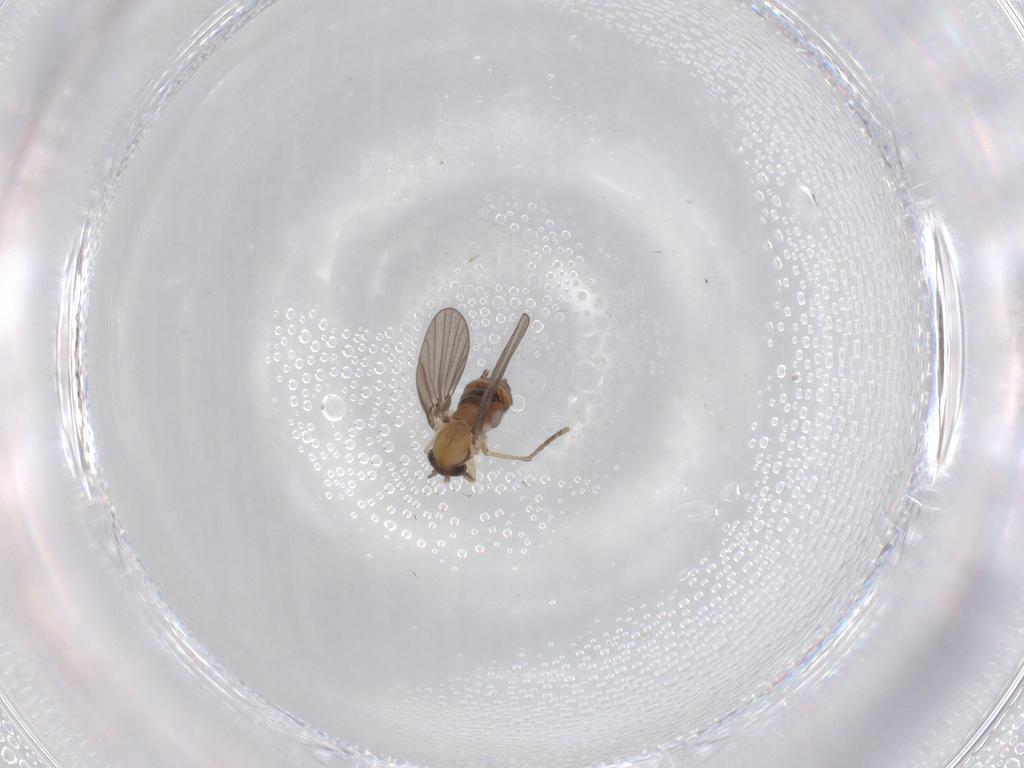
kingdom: Animalia
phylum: Arthropoda
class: Insecta
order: Diptera
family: Psychodidae
